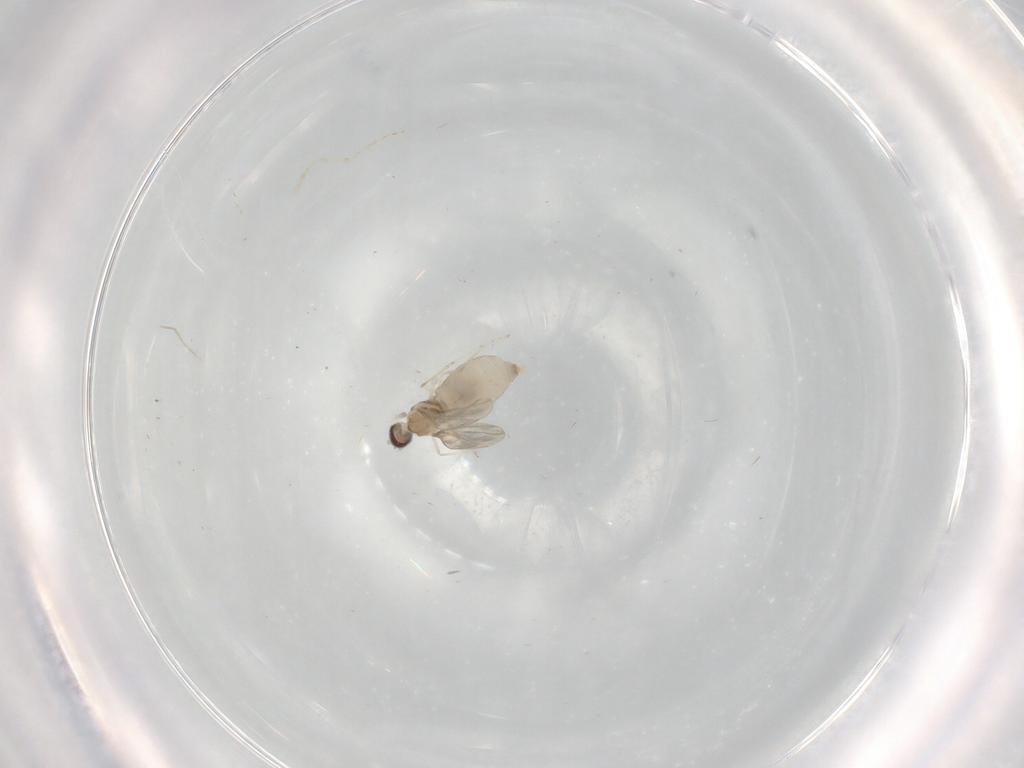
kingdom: Animalia
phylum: Arthropoda
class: Insecta
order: Diptera
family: Cecidomyiidae
